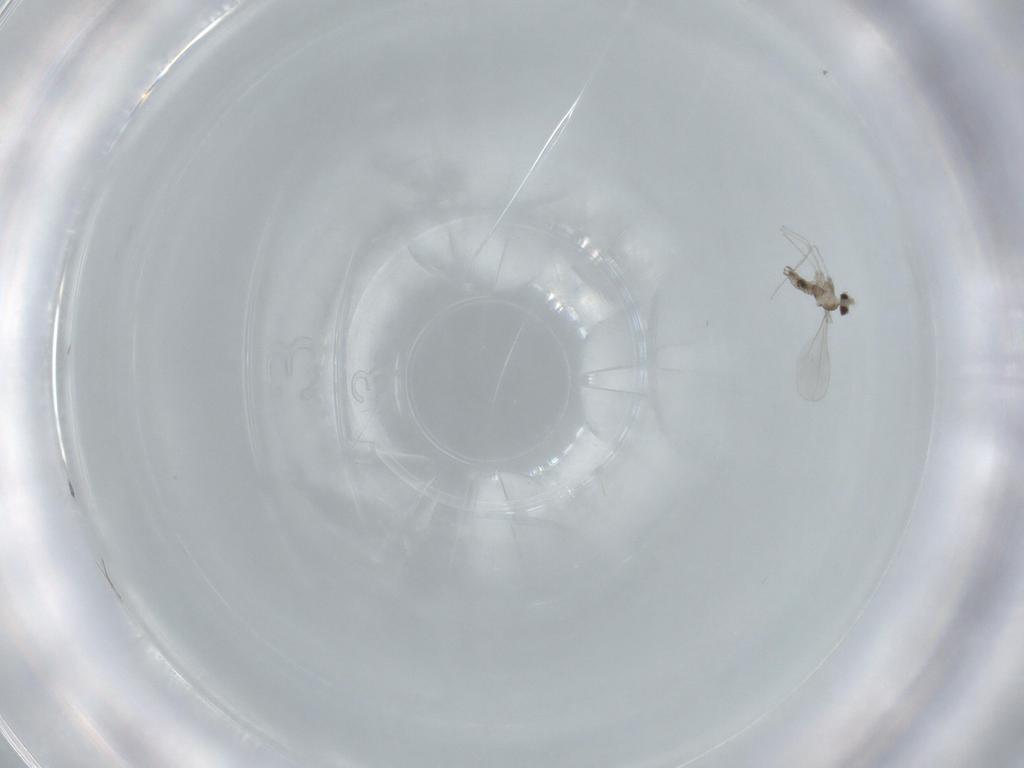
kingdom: Animalia
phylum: Arthropoda
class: Insecta
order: Diptera
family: Cecidomyiidae
